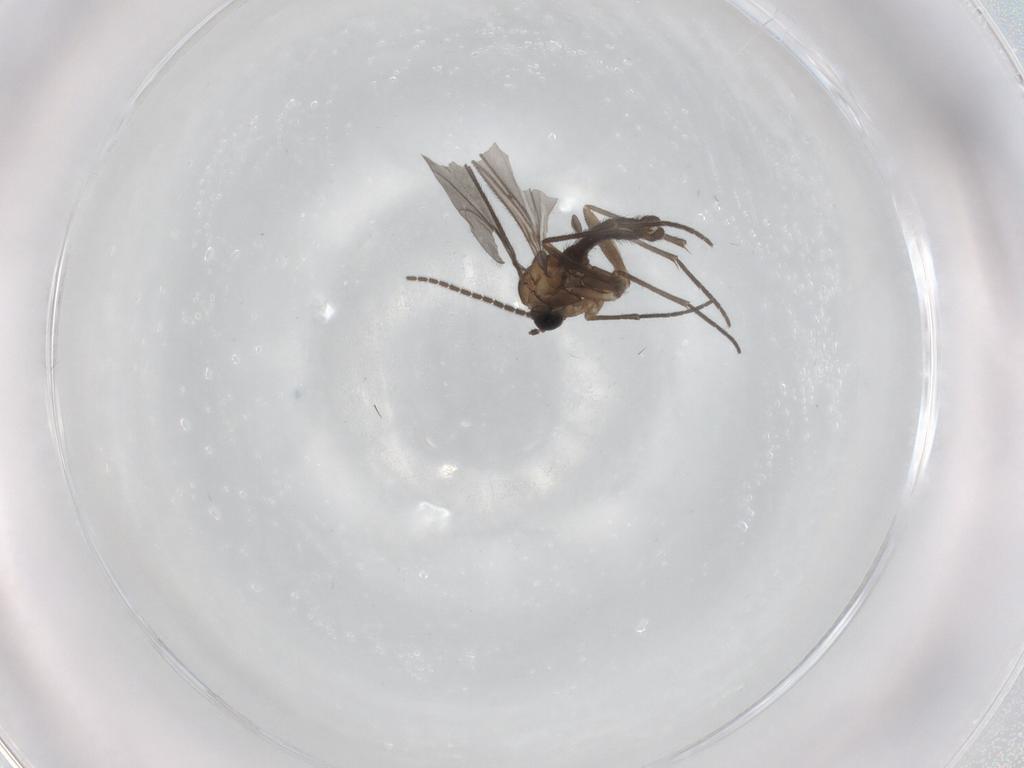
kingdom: Animalia
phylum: Arthropoda
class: Insecta
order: Diptera
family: Sciaridae
